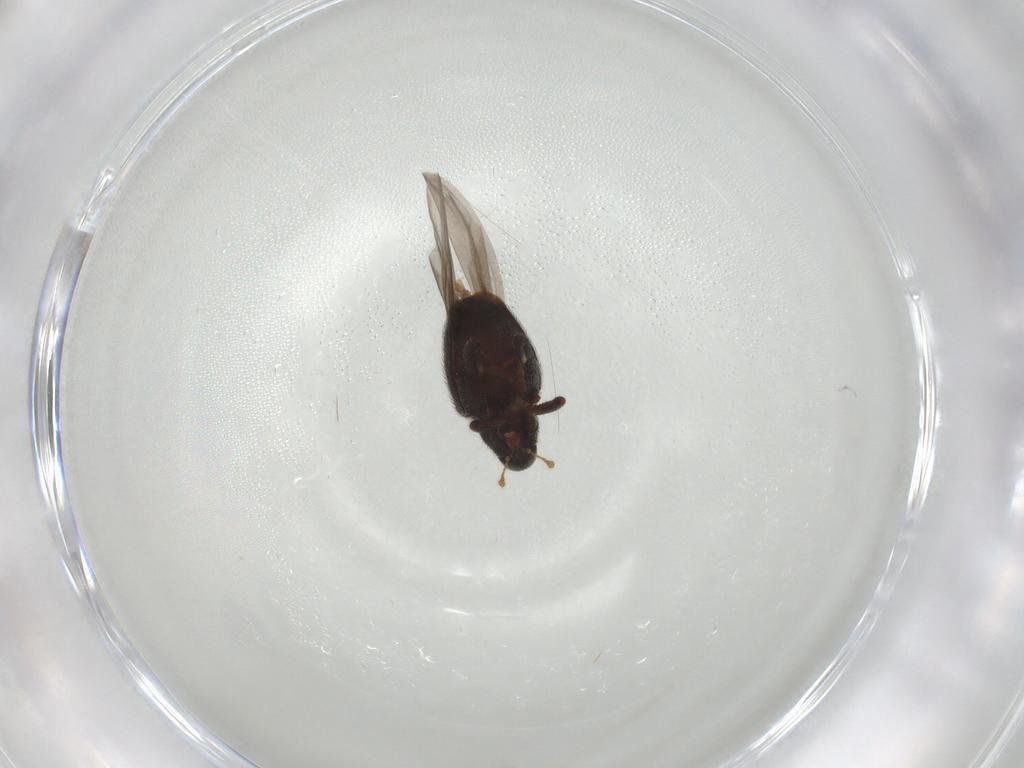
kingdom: Animalia
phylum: Arthropoda
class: Insecta
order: Coleoptera
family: Curculionidae
